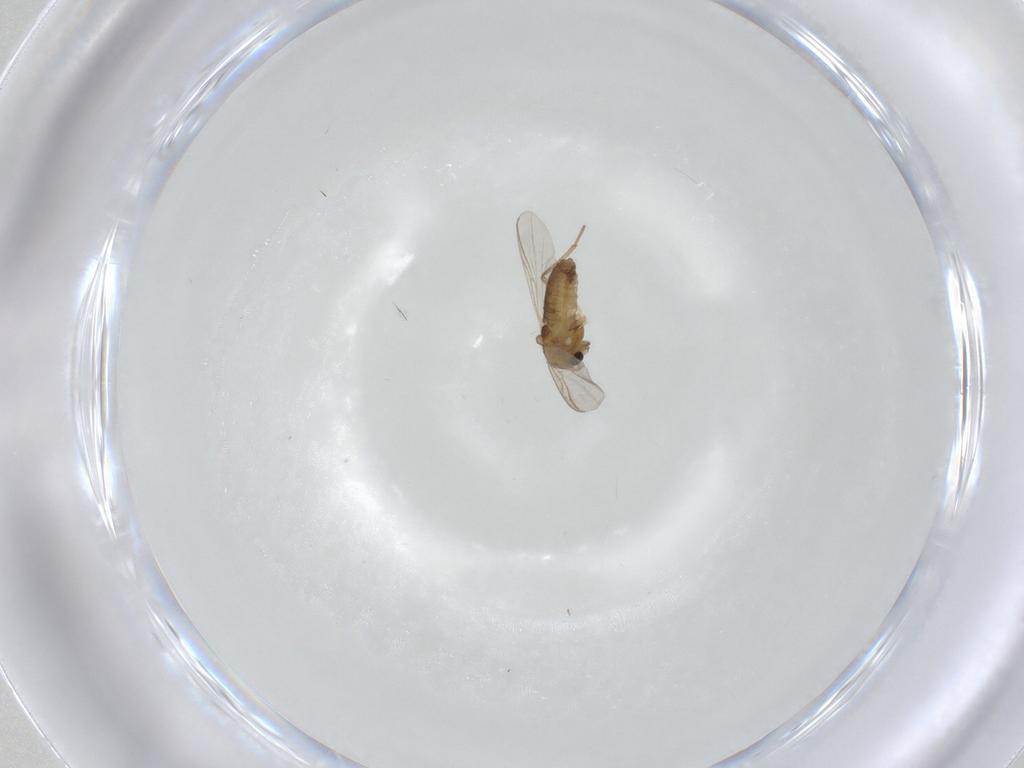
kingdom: Animalia
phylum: Arthropoda
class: Insecta
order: Diptera
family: Chironomidae
